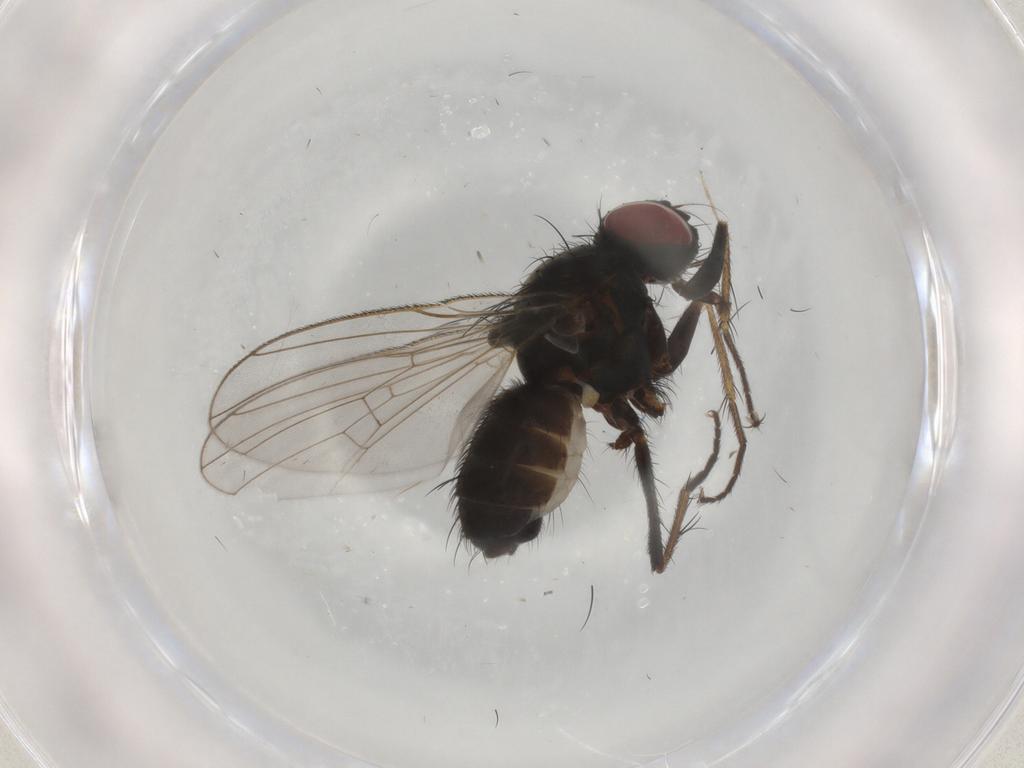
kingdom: Animalia
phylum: Arthropoda
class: Insecta
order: Diptera
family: Muscidae
